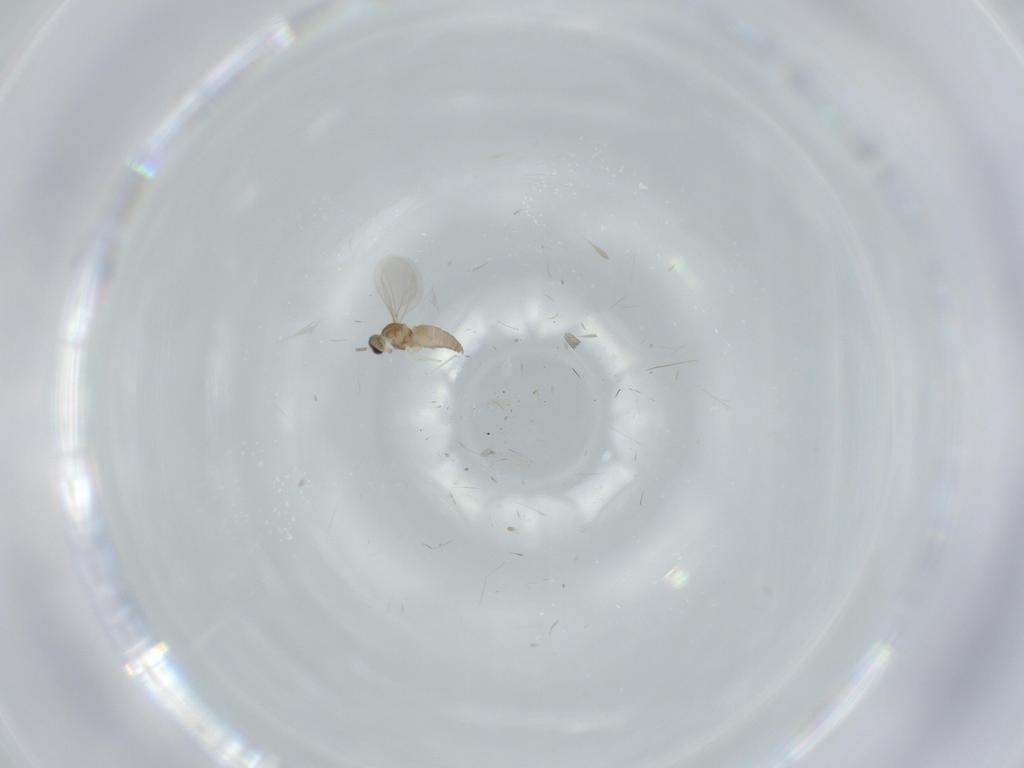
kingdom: Animalia
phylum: Arthropoda
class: Insecta
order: Diptera
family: Cecidomyiidae
